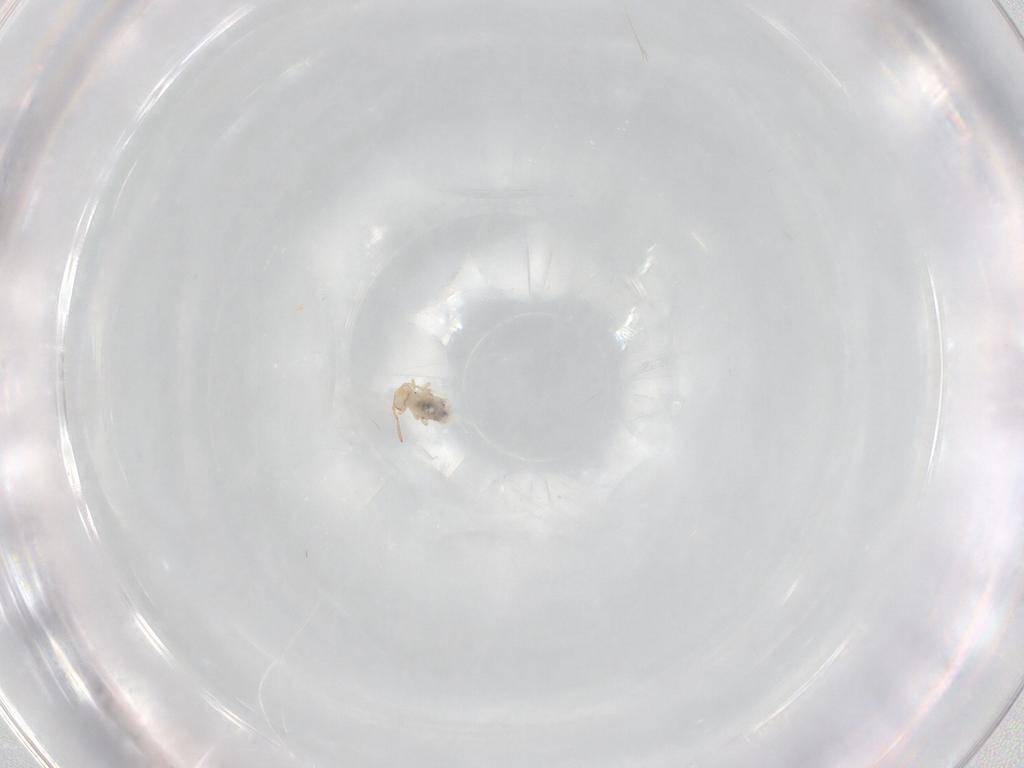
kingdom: Animalia
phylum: Arthropoda
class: Collembola
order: Symphypleona
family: Bourletiellidae
